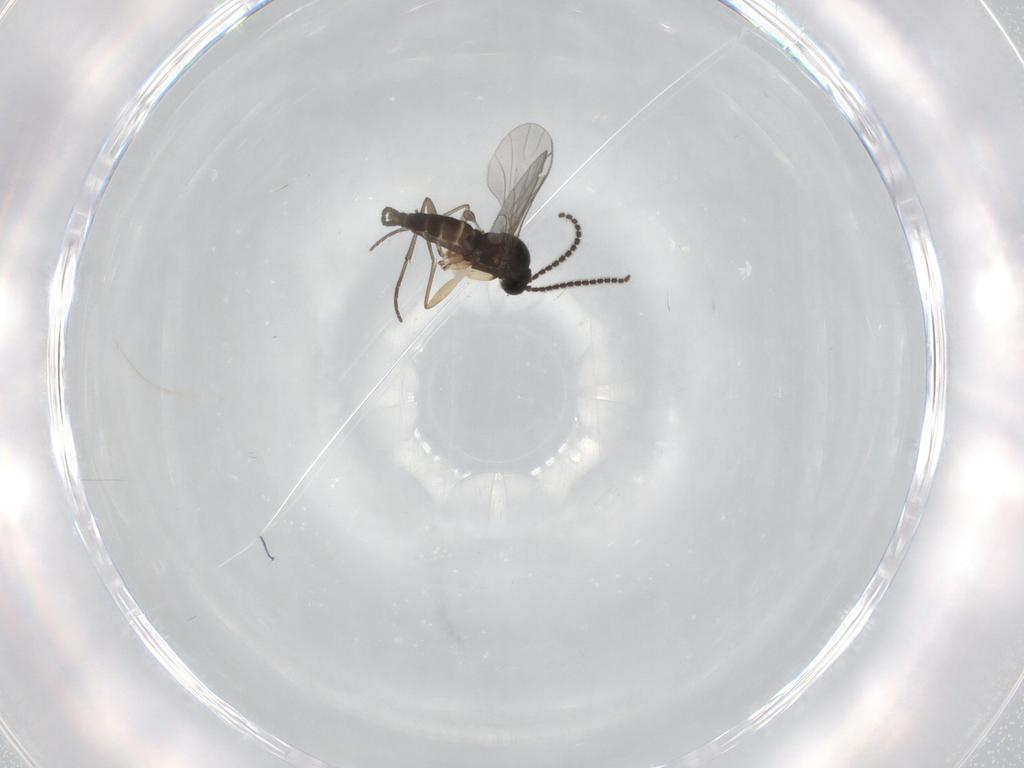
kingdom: Animalia
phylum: Arthropoda
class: Insecta
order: Diptera
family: Sciaridae
